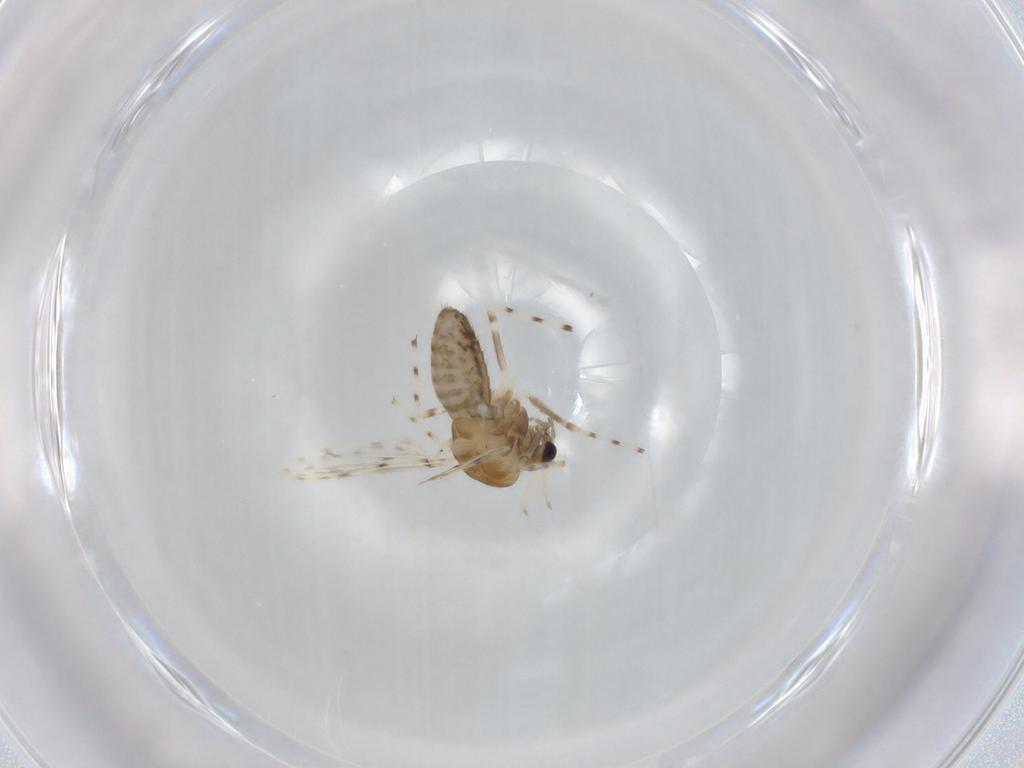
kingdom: Animalia
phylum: Arthropoda
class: Insecta
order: Diptera
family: Chironomidae
